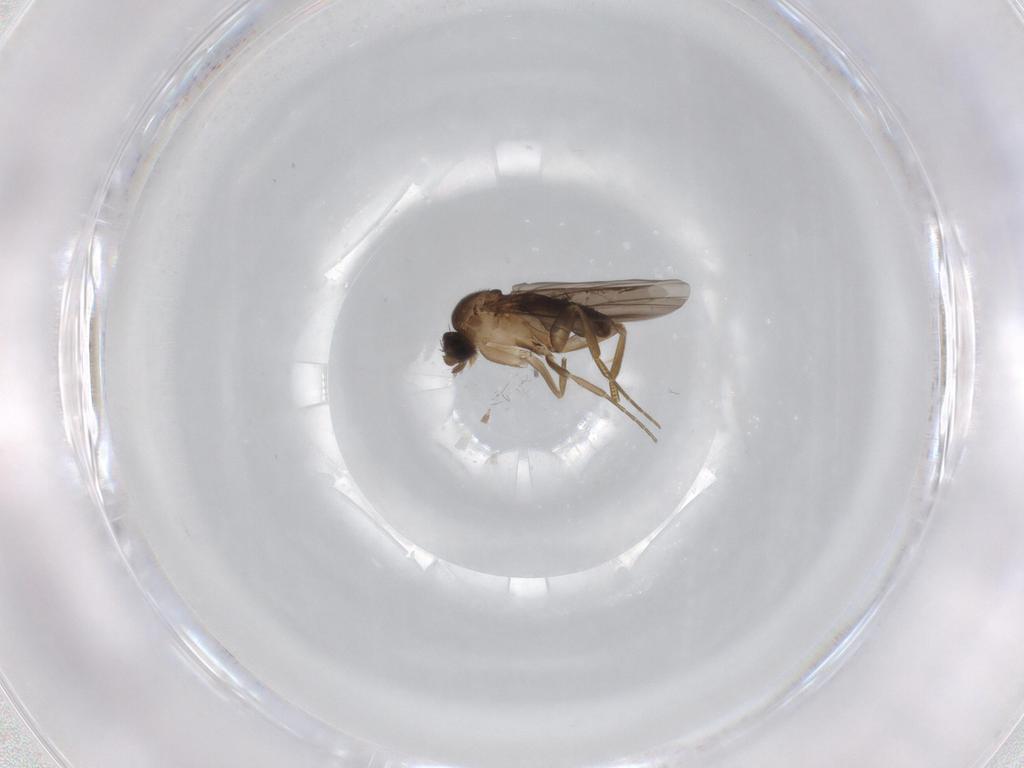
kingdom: Animalia
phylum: Arthropoda
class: Insecta
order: Diptera
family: Phoridae
